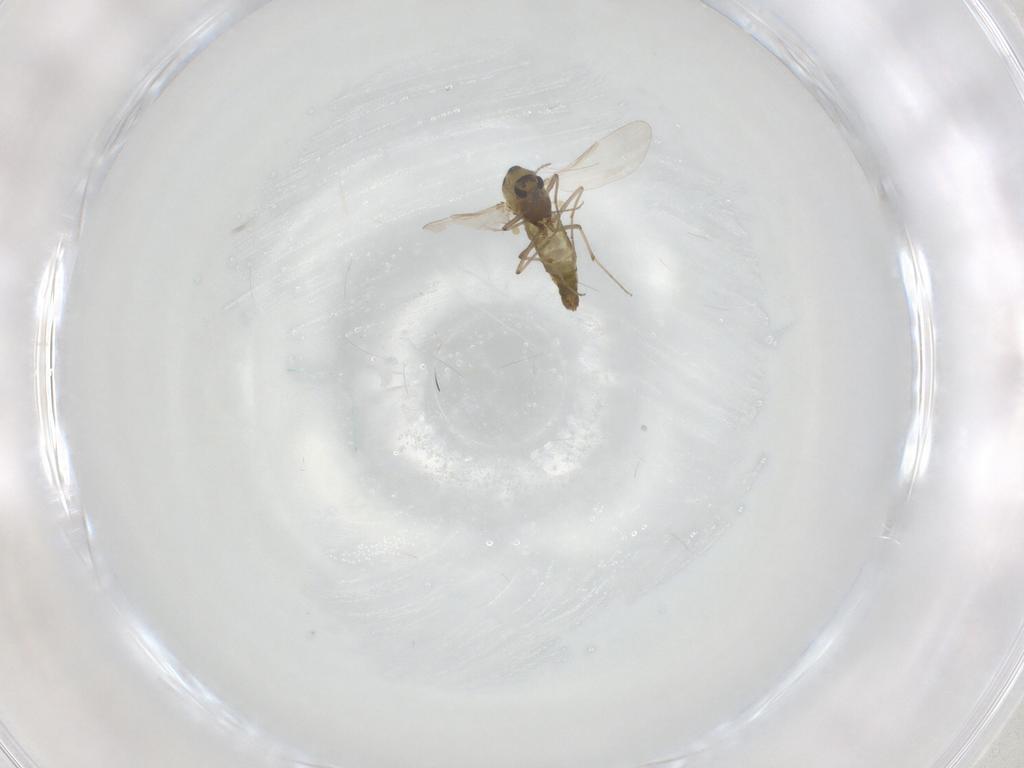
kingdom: Animalia
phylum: Arthropoda
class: Insecta
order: Diptera
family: Chironomidae
